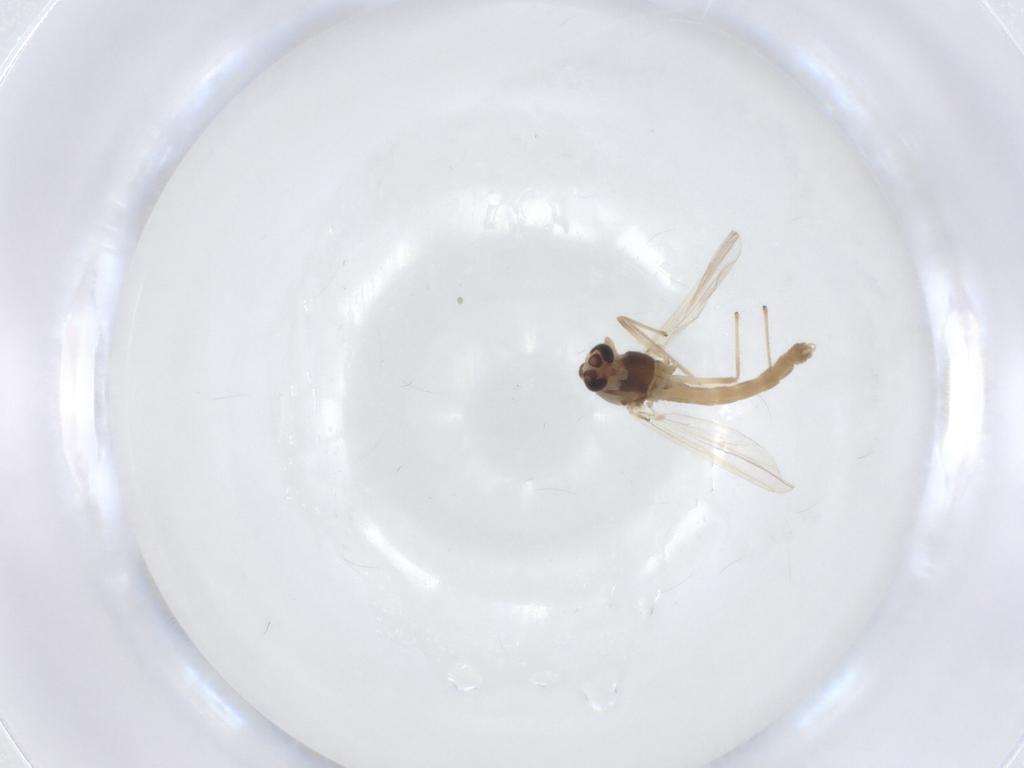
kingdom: Animalia
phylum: Arthropoda
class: Insecta
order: Diptera
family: Chironomidae
